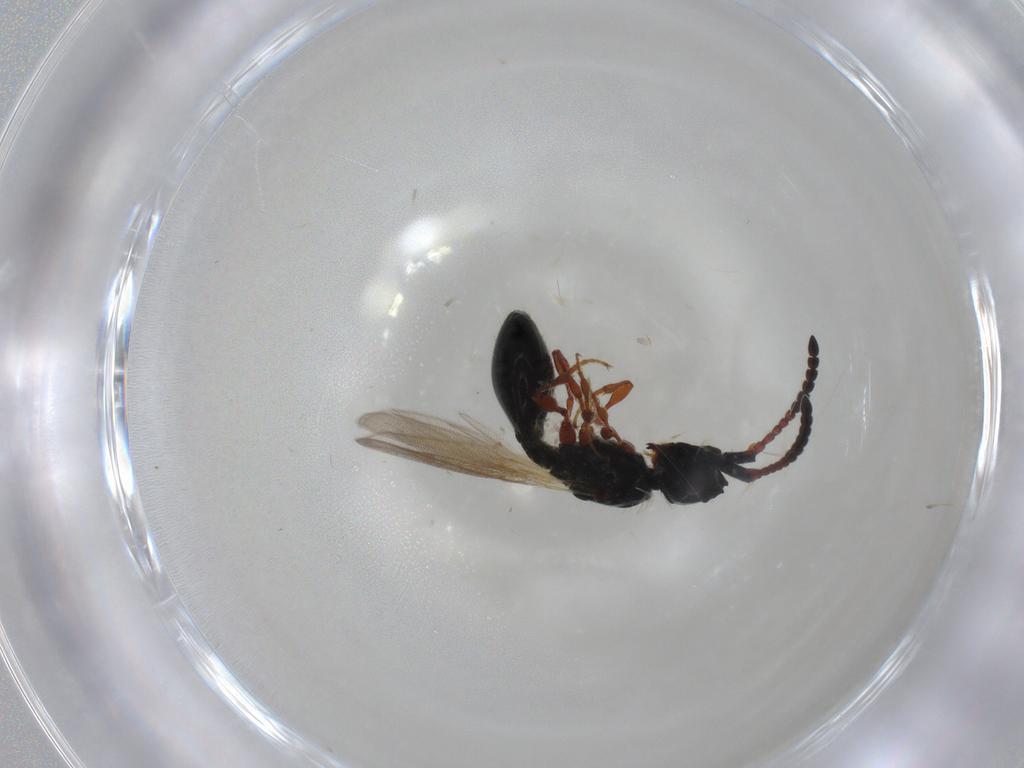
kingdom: Animalia
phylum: Arthropoda
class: Insecta
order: Hymenoptera
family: Diapriidae
